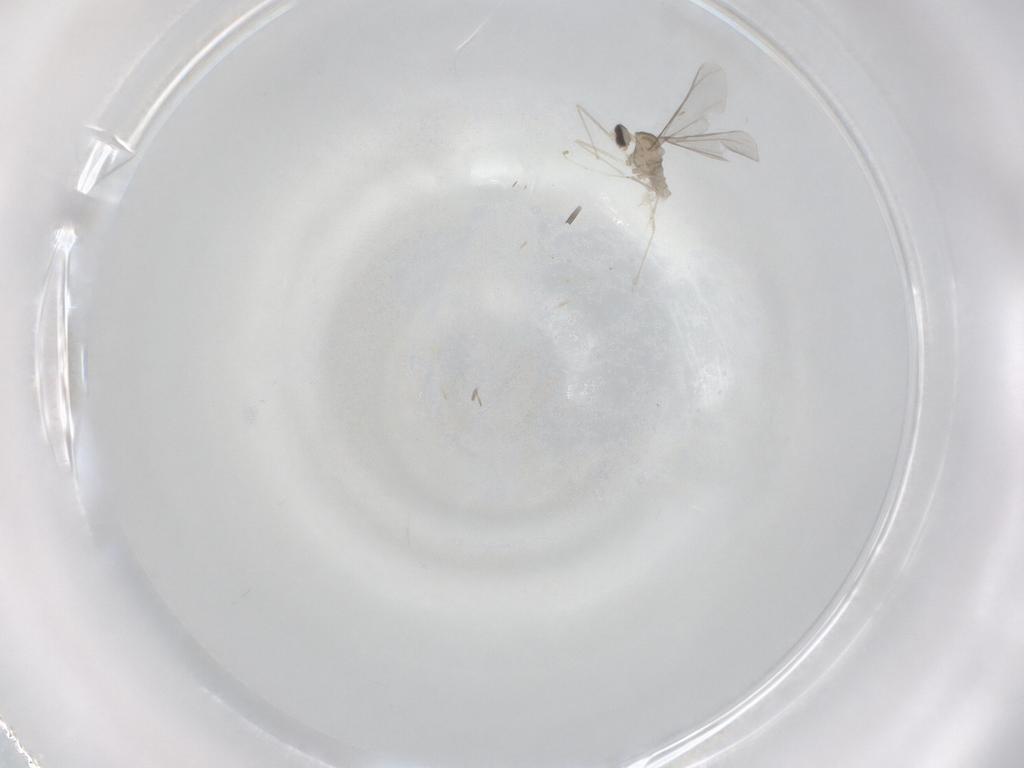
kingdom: Animalia
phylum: Arthropoda
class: Insecta
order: Diptera
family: Cecidomyiidae
